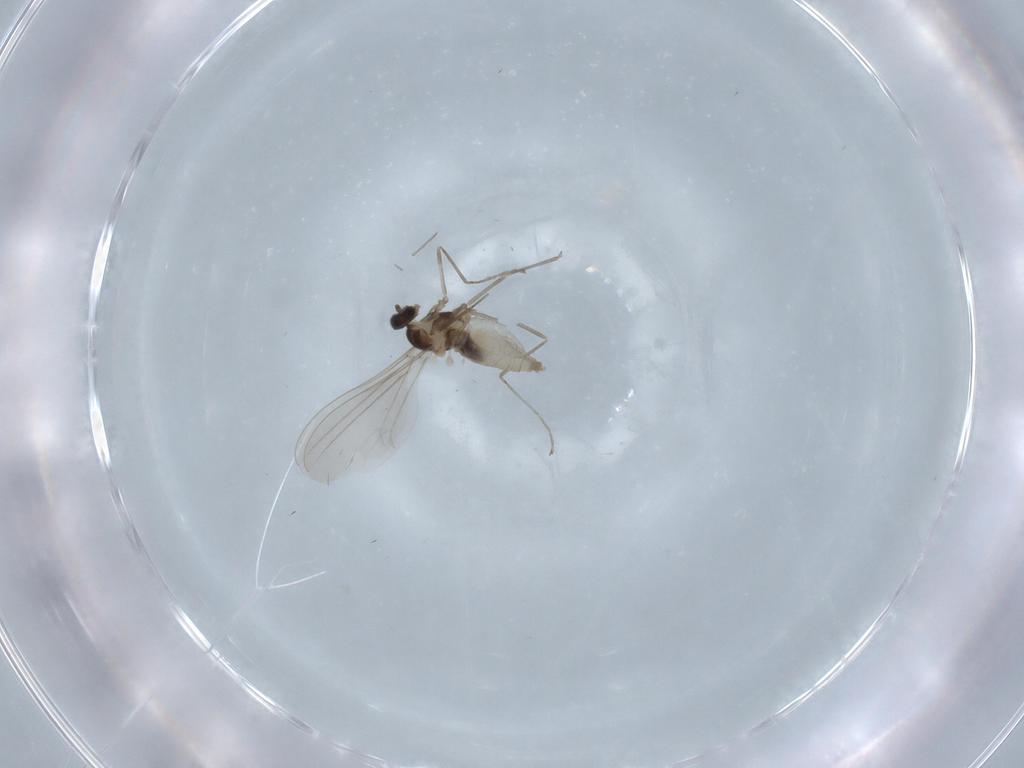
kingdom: Animalia
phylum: Arthropoda
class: Insecta
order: Diptera
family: Cecidomyiidae
